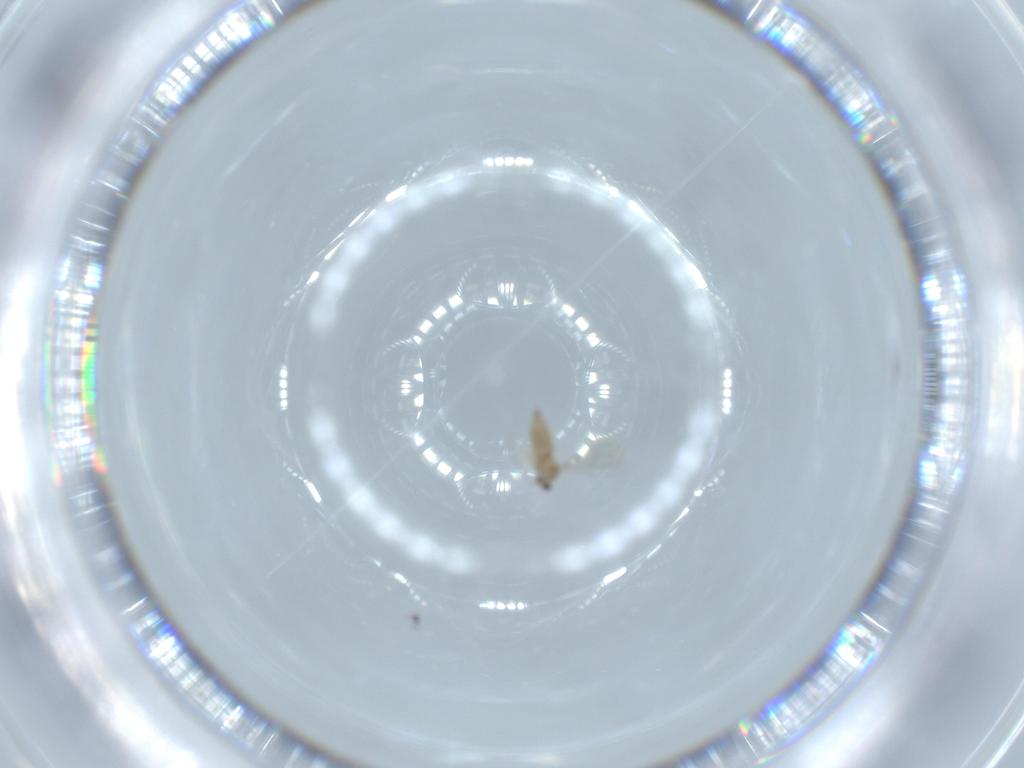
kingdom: Animalia
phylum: Arthropoda
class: Insecta
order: Diptera
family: Cecidomyiidae
